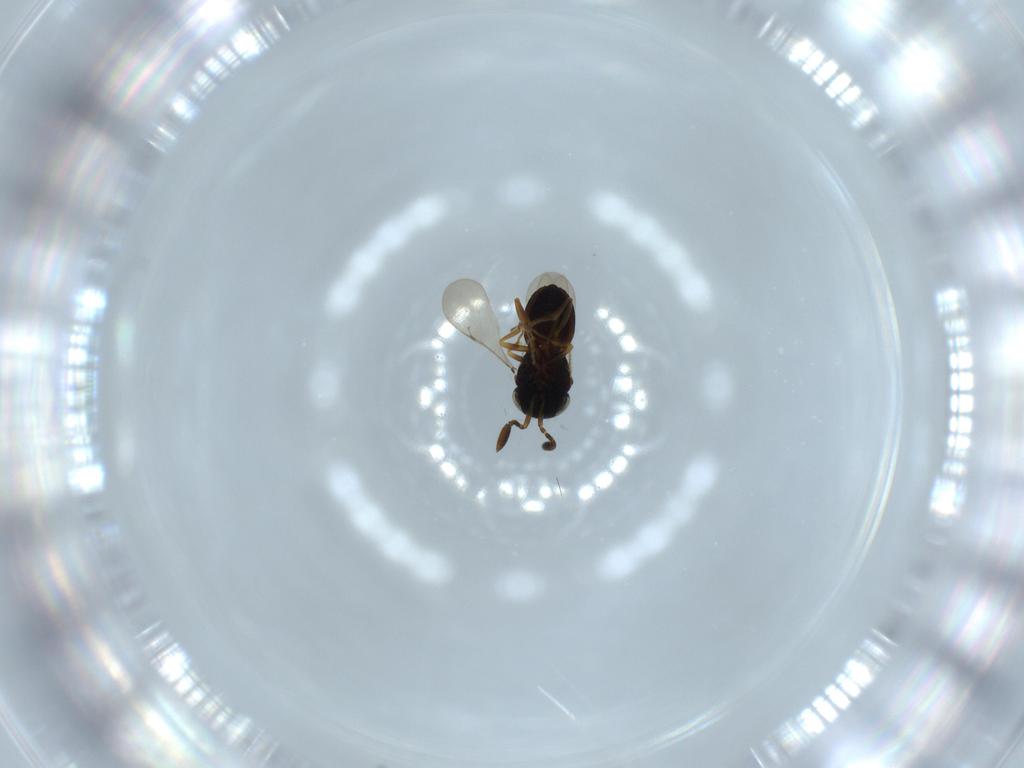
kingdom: Animalia
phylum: Arthropoda
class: Insecta
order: Coleoptera
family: Curculionidae
